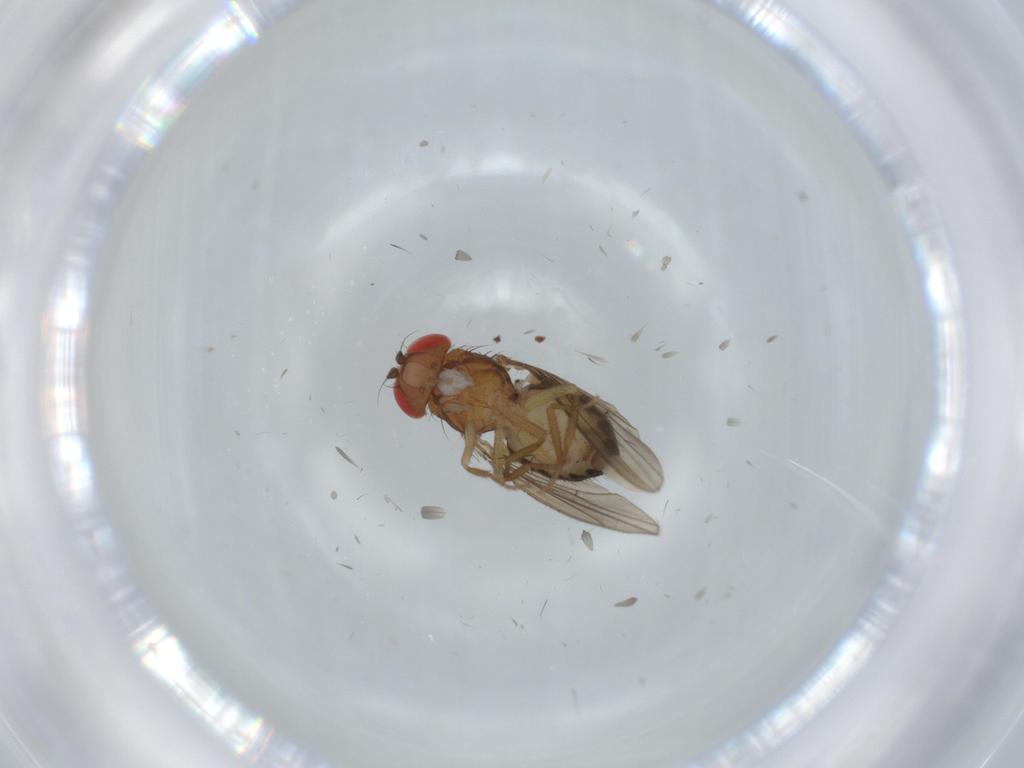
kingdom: Animalia
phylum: Arthropoda
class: Insecta
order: Diptera
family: Drosophilidae
